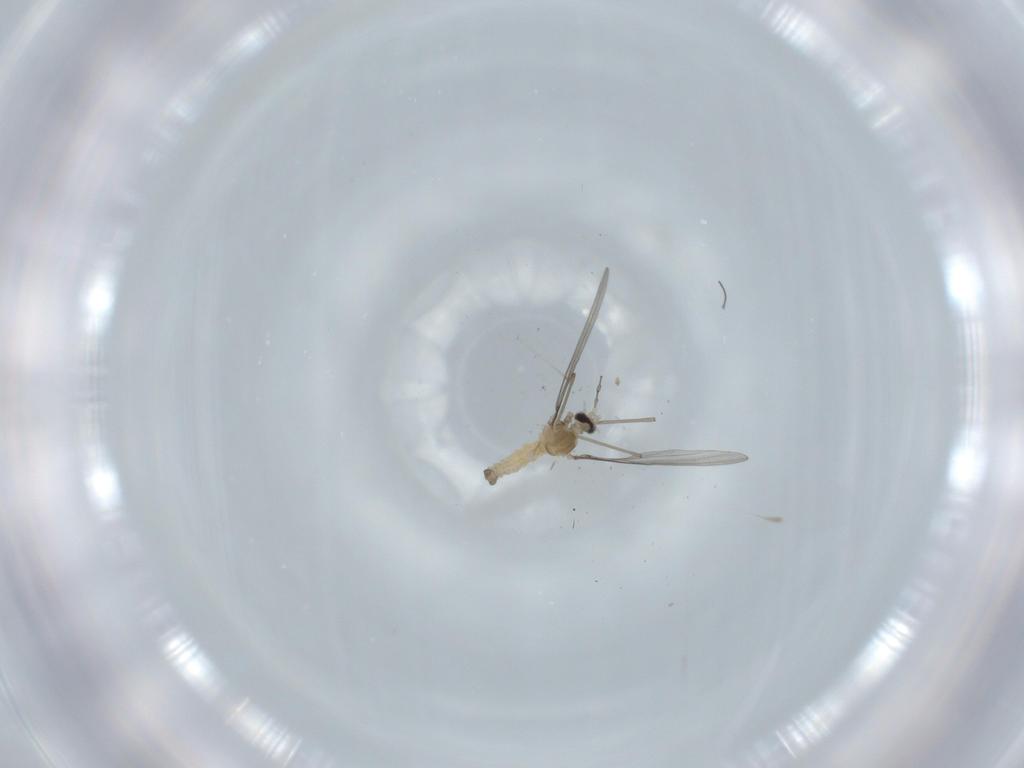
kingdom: Animalia
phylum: Arthropoda
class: Insecta
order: Diptera
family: Cecidomyiidae
